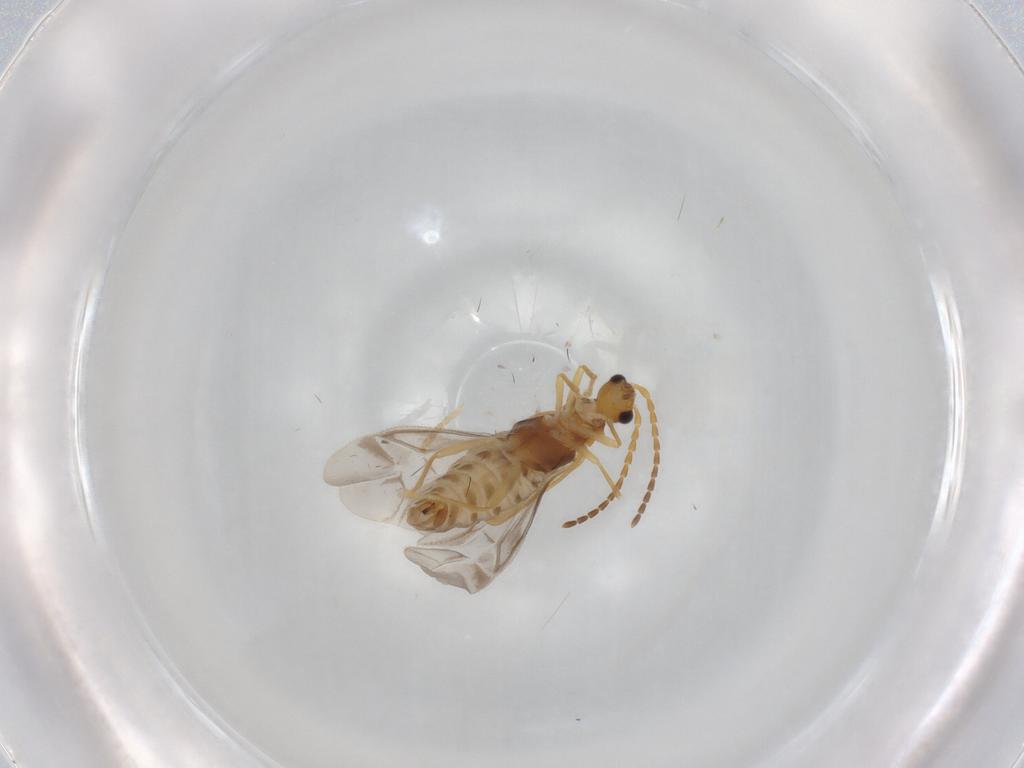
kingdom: Animalia
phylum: Arthropoda
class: Insecta
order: Coleoptera
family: Cantharidae
